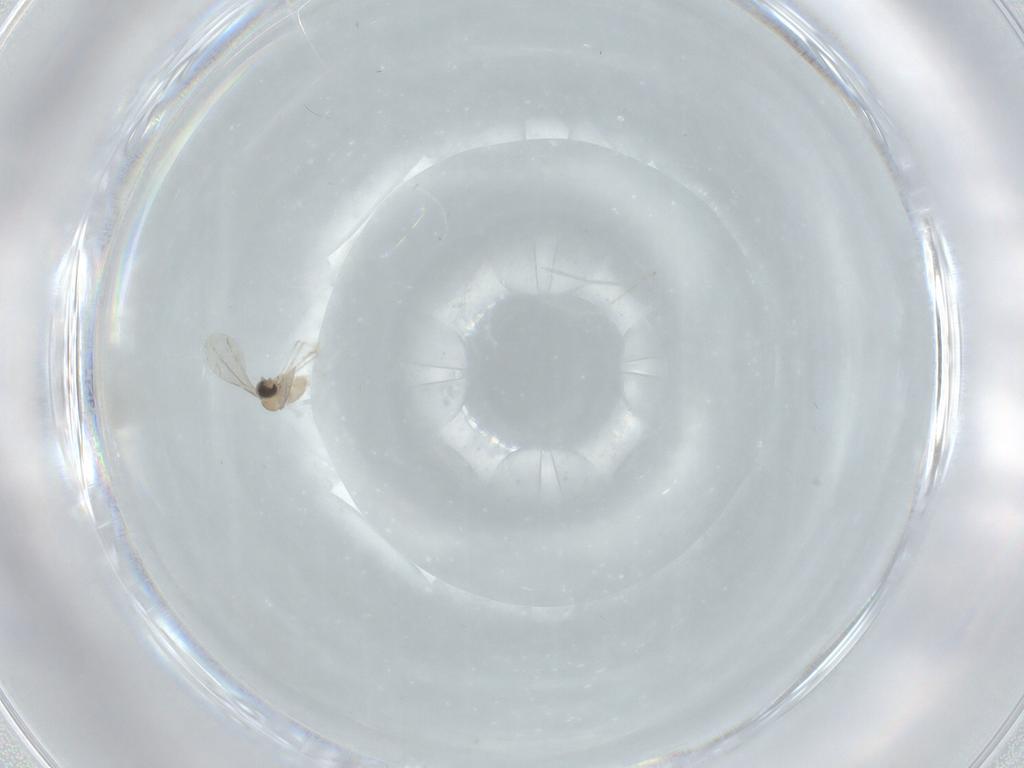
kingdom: Animalia
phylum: Arthropoda
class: Insecta
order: Diptera
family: Cecidomyiidae
